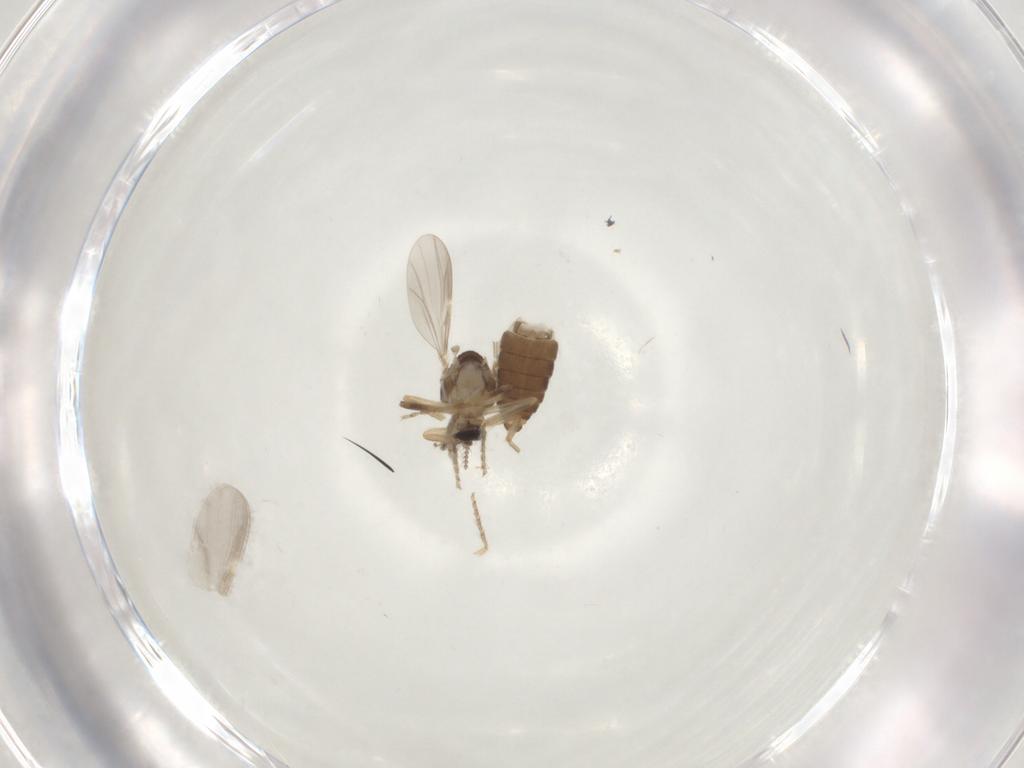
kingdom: Animalia
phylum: Arthropoda
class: Insecta
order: Diptera
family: Ceratopogonidae
